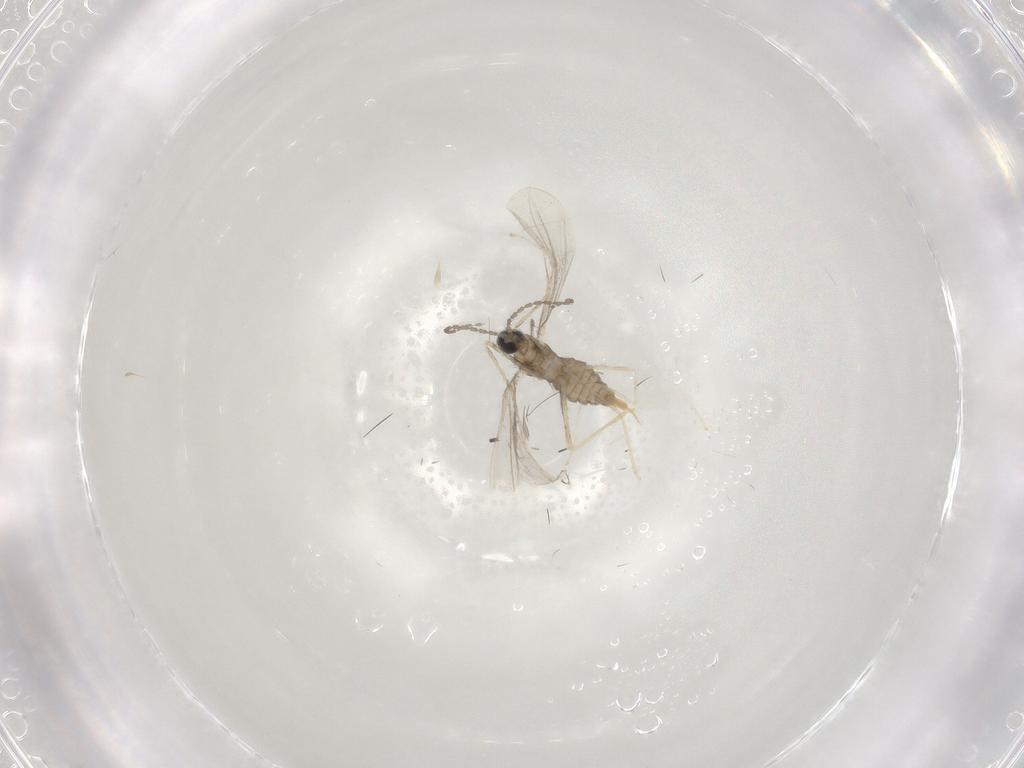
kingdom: Animalia
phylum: Arthropoda
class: Insecta
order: Diptera
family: Cecidomyiidae
